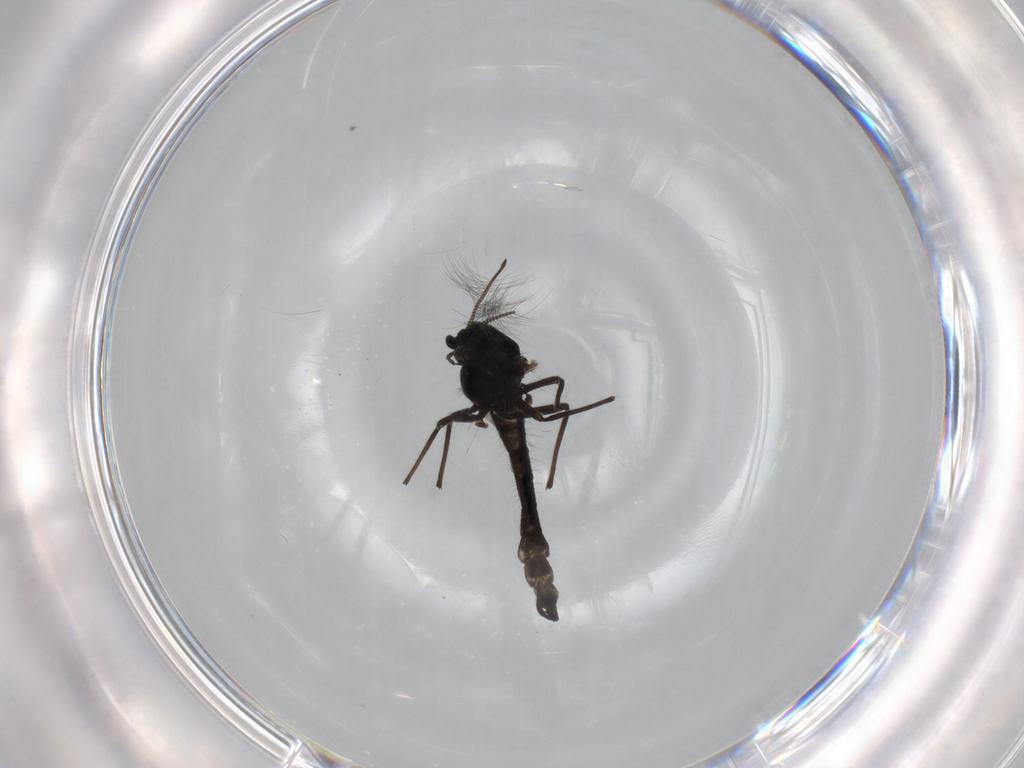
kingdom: Animalia
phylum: Arthropoda
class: Insecta
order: Diptera
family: Chironomidae
